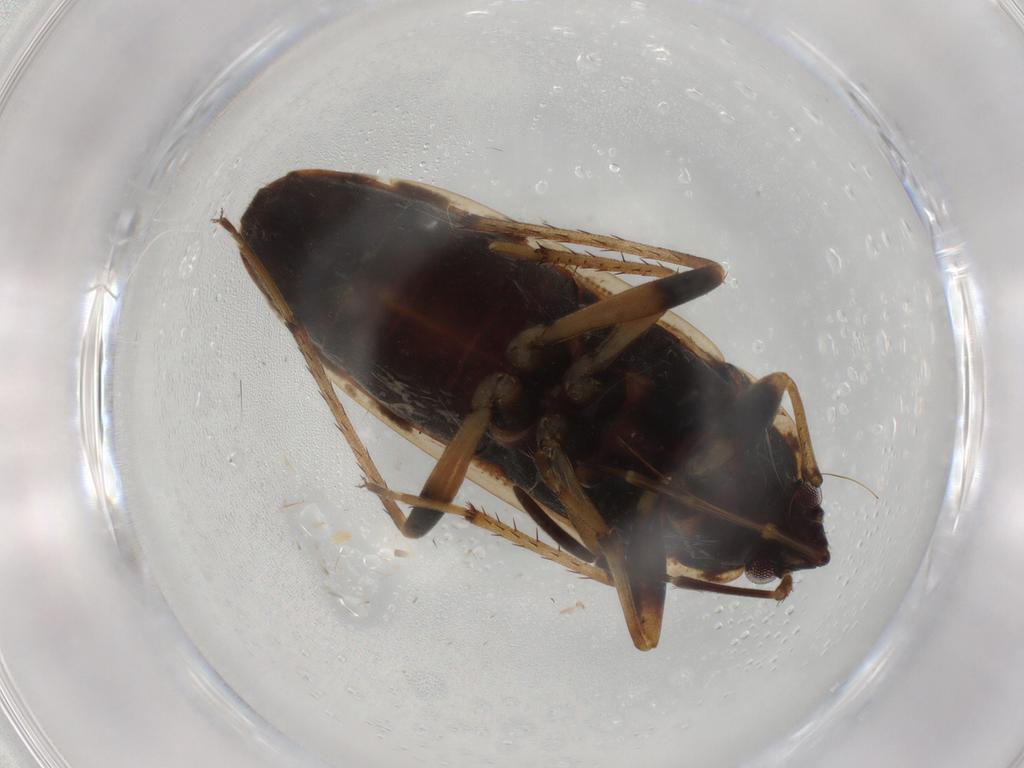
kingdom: Animalia
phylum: Arthropoda
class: Insecta
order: Hemiptera
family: Rhyparochromidae
